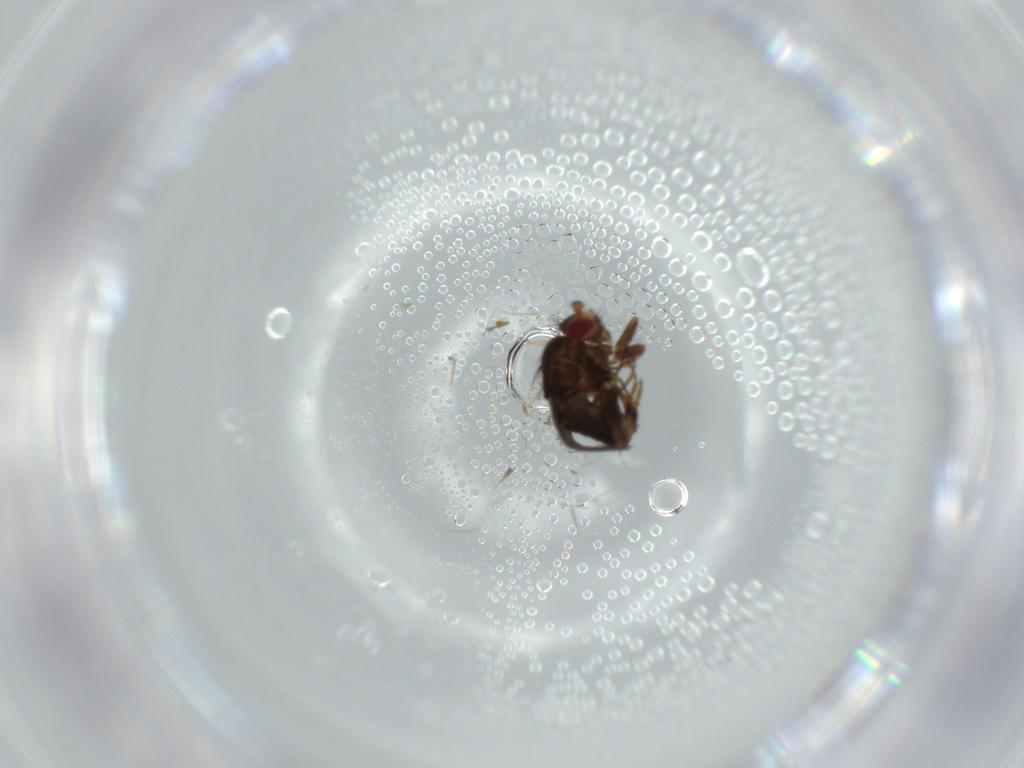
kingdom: Animalia
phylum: Arthropoda
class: Insecta
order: Diptera
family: Sphaeroceridae
